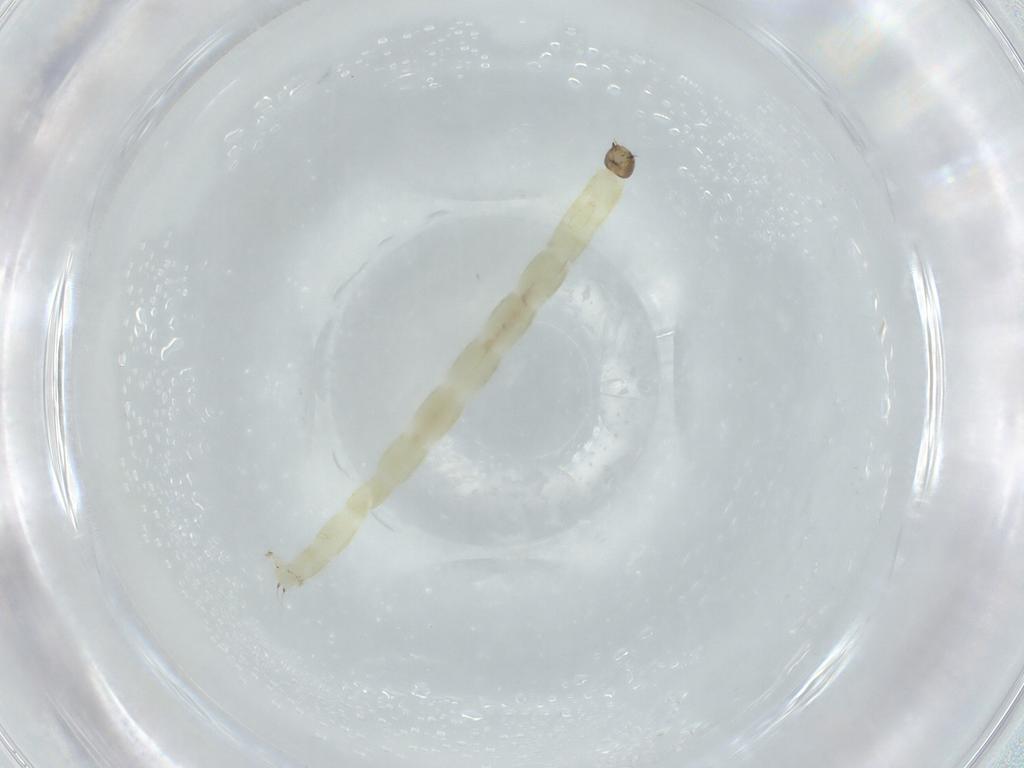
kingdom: Animalia
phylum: Arthropoda
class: Insecta
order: Diptera
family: Chironomidae
